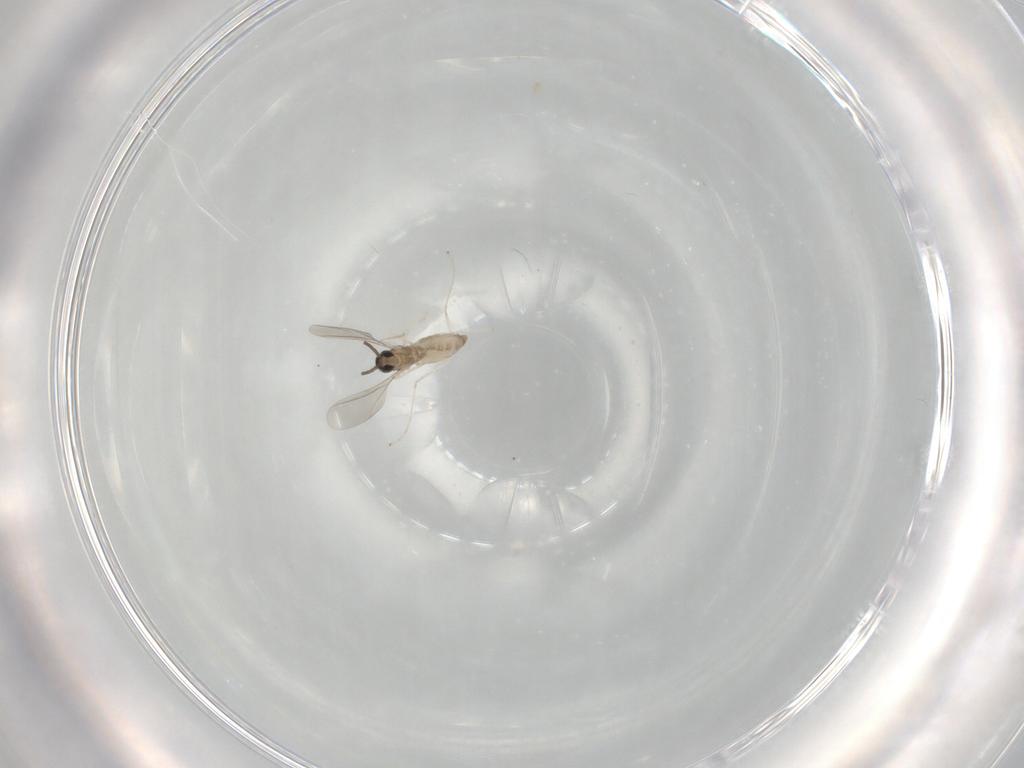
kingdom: Animalia
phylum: Arthropoda
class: Insecta
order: Diptera
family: Cecidomyiidae
